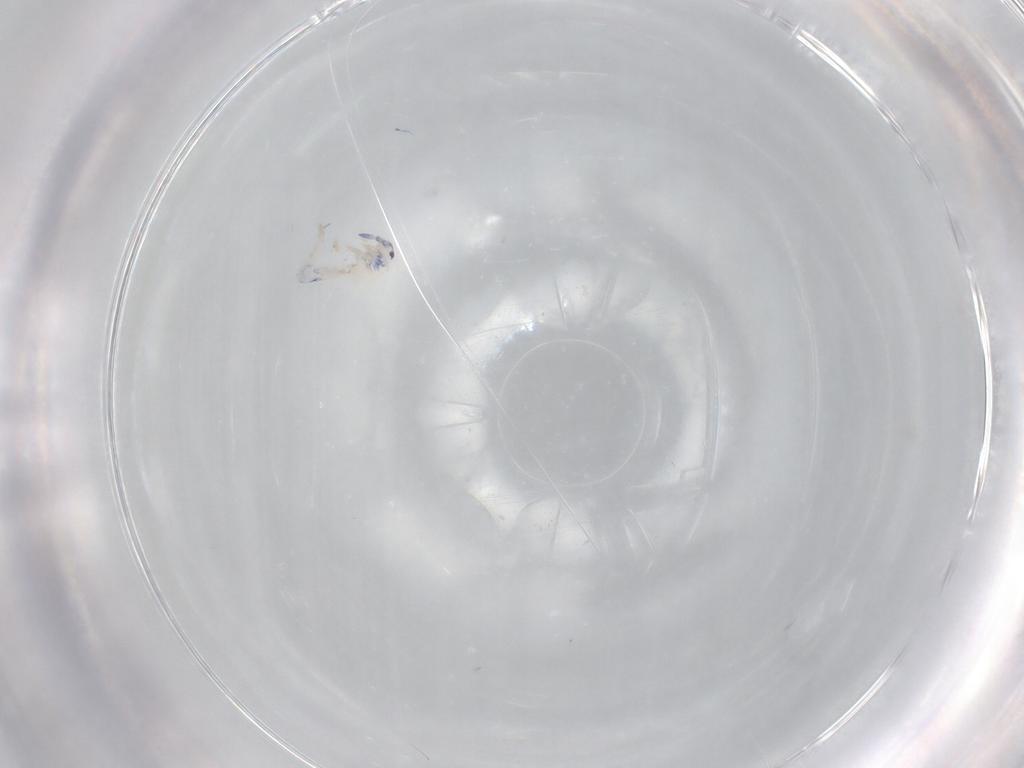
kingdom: Animalia
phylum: Arthropoda
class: Collembola
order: Entomobryomorpha
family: Entomobryidae
